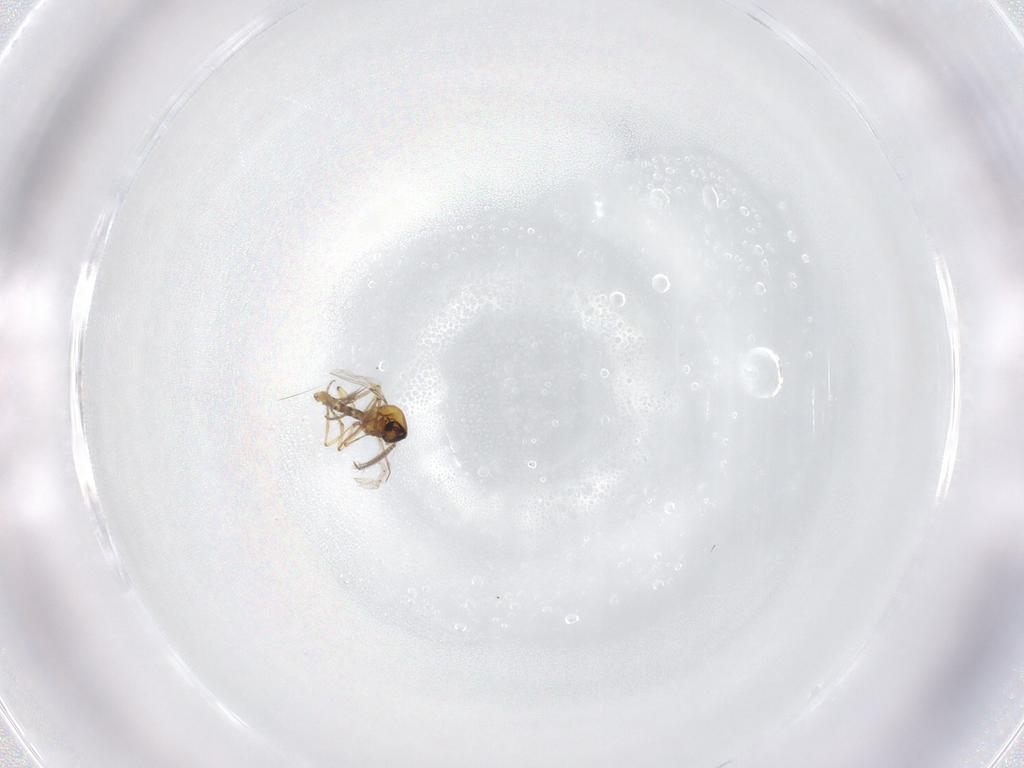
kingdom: Animalia
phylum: Arthropoda
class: Insecta
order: Diptera
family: Ceratopogonidae
